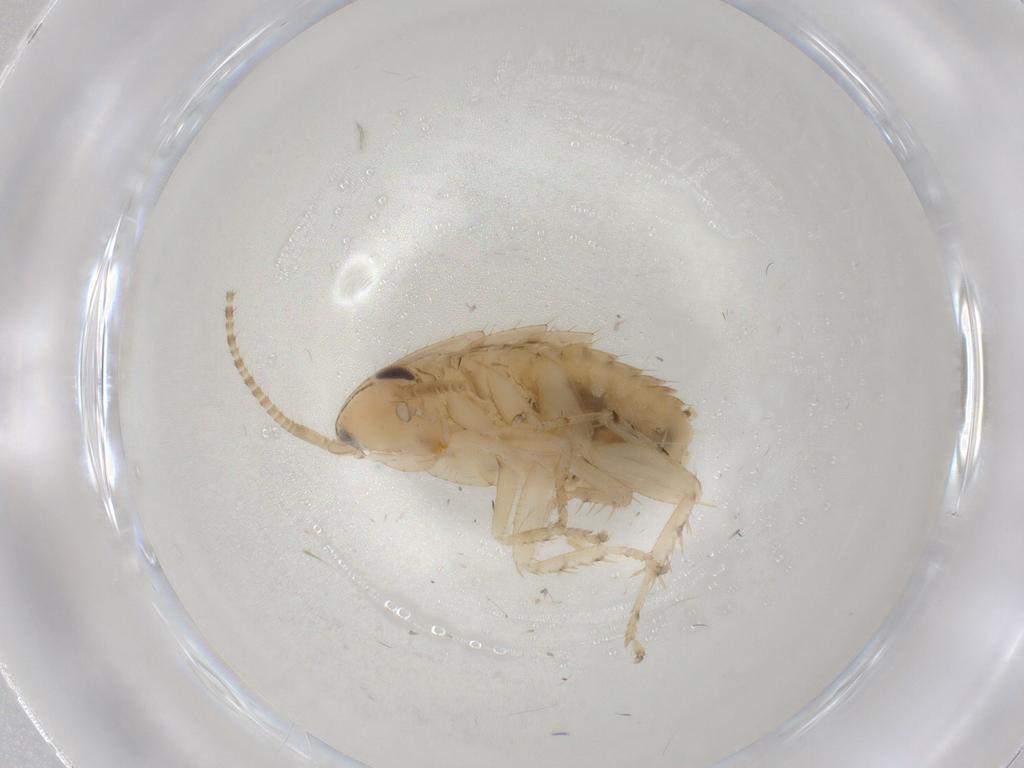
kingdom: Animalia
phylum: Arthropoda
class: Insecta
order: Blattodea
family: Ectobiidae
